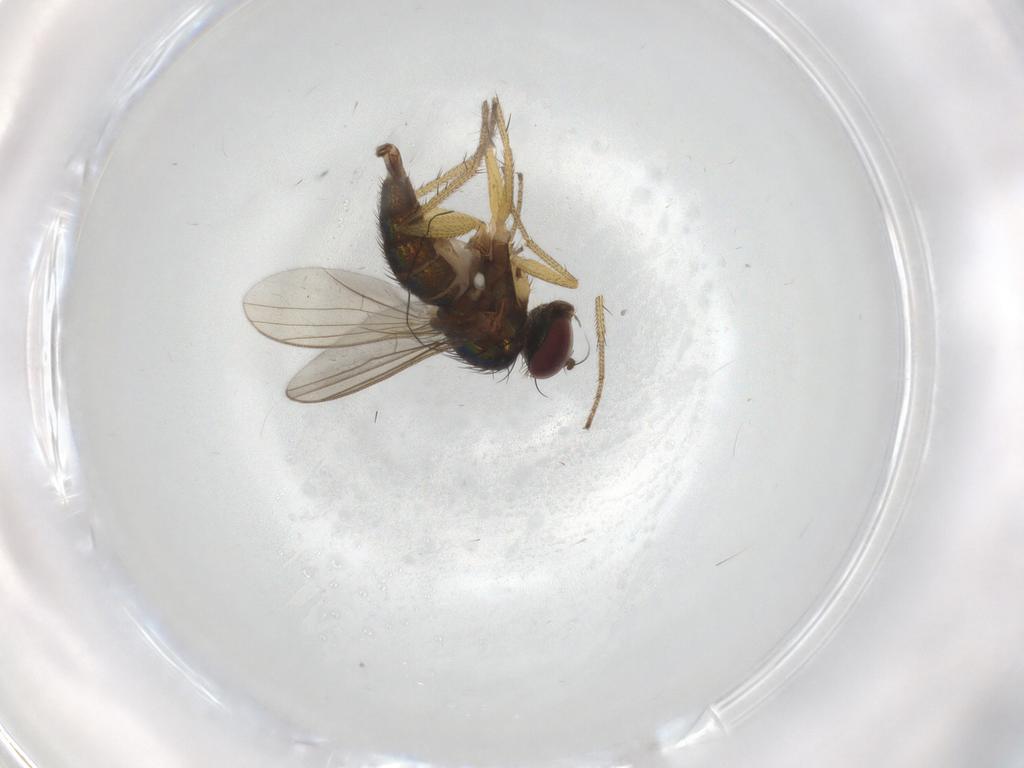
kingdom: Animalia
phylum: Arthropoda
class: Insecta
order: Diptera
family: Chironomidae
